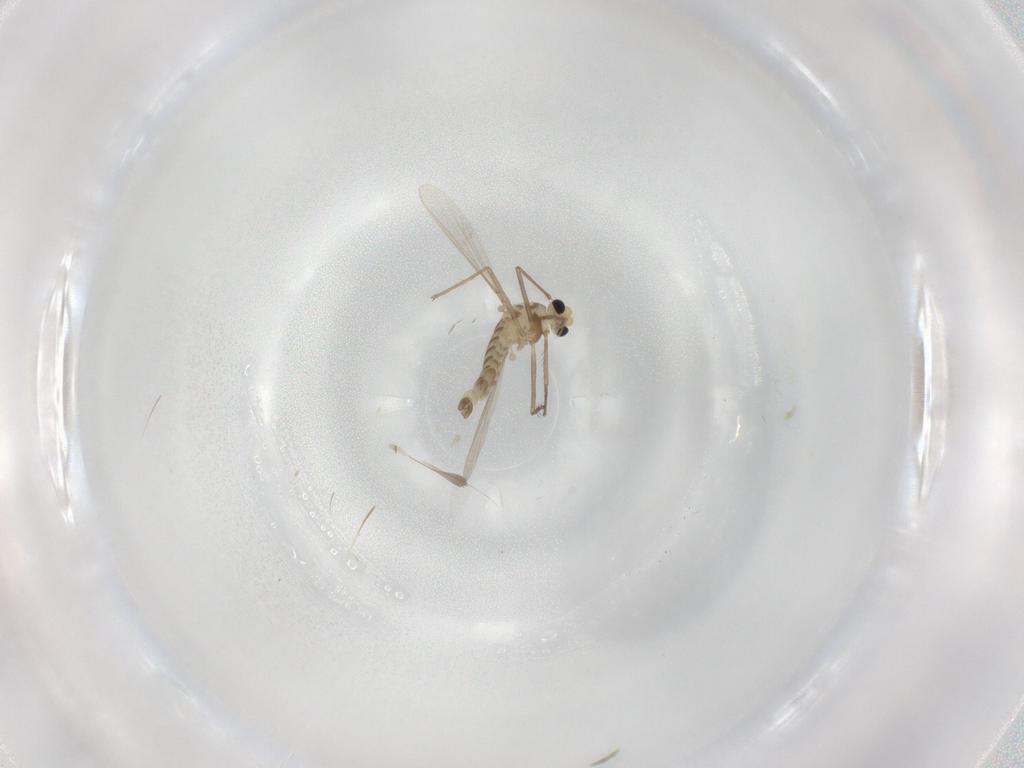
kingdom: Animalia
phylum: Arthropoda
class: Insecta
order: Diptera
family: Chironomidae
